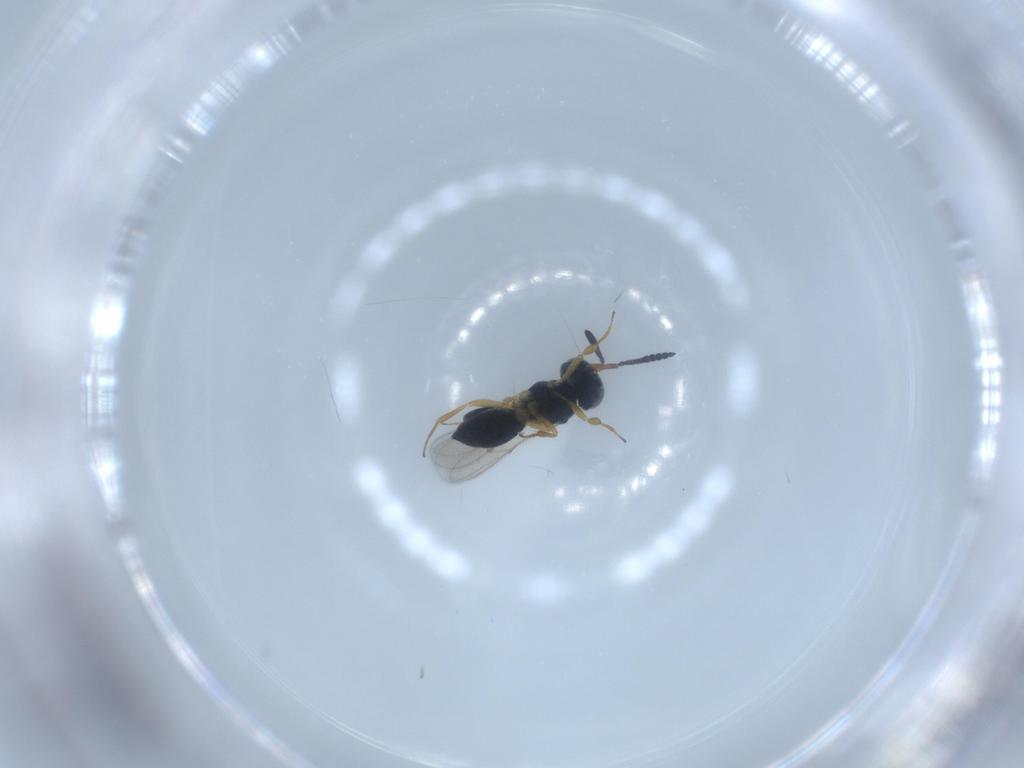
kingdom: Animalia
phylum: Arthropoda
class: Insecta
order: Hymenoptera
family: Scelionidae
